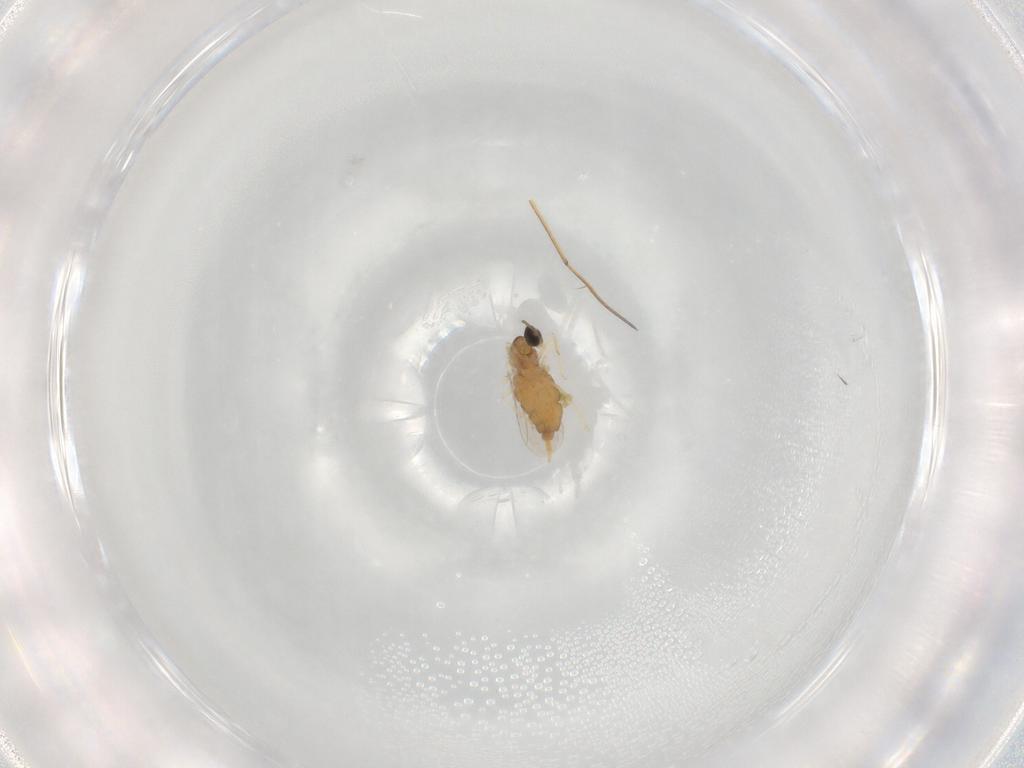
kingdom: Animalia
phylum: Arthropoda
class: Insecta
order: Diptera
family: Cecidomyiidae
